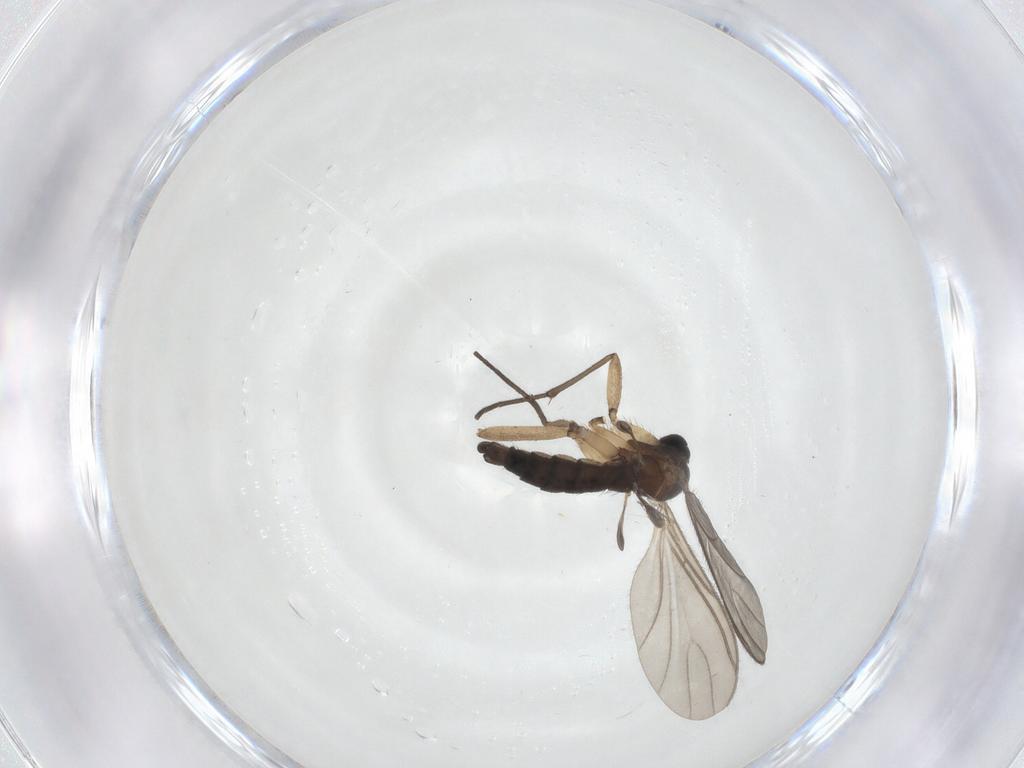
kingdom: Animalia
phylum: Arthropoda
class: Insecta
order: Diptera
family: Sciaridae
